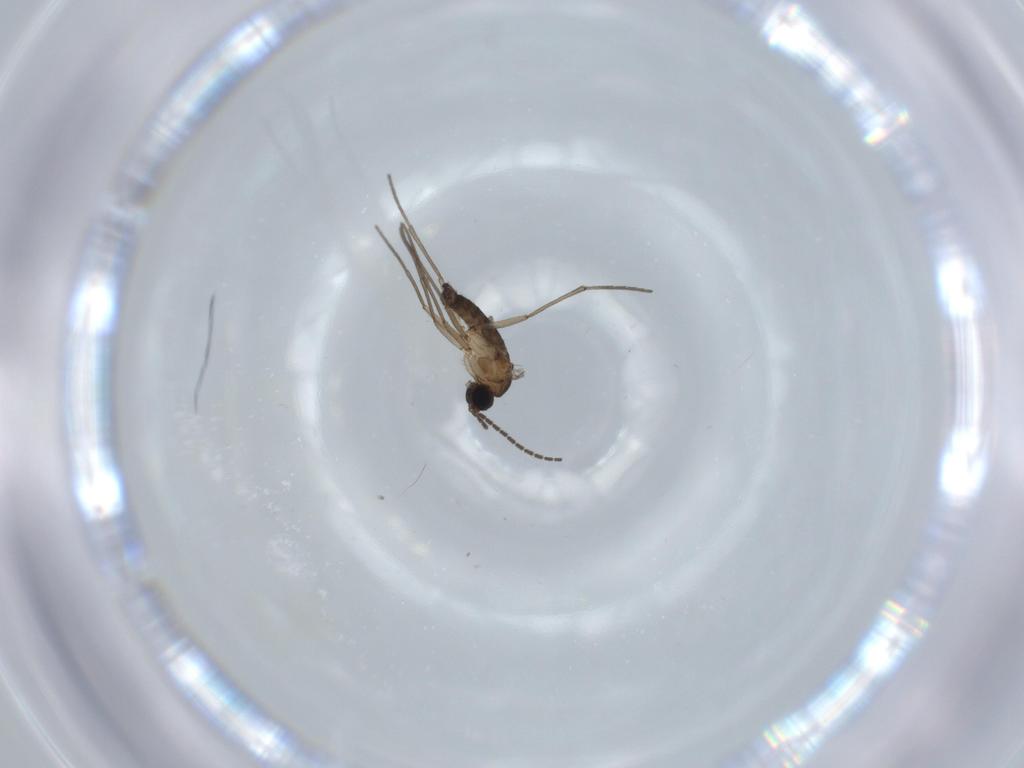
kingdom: Animalia
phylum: Arthropoda
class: Insecta
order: Diptera
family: Sciaridae
